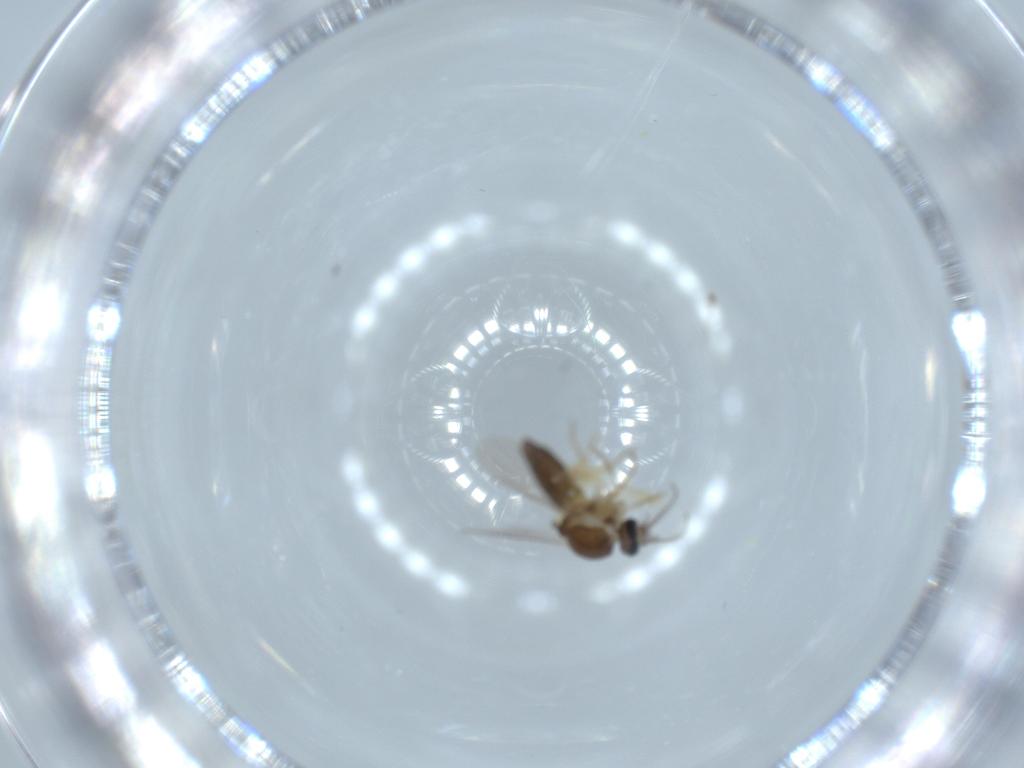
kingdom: Animalia
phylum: Arthropoda
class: Insecta
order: Diptera
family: Ceratopogonidae
